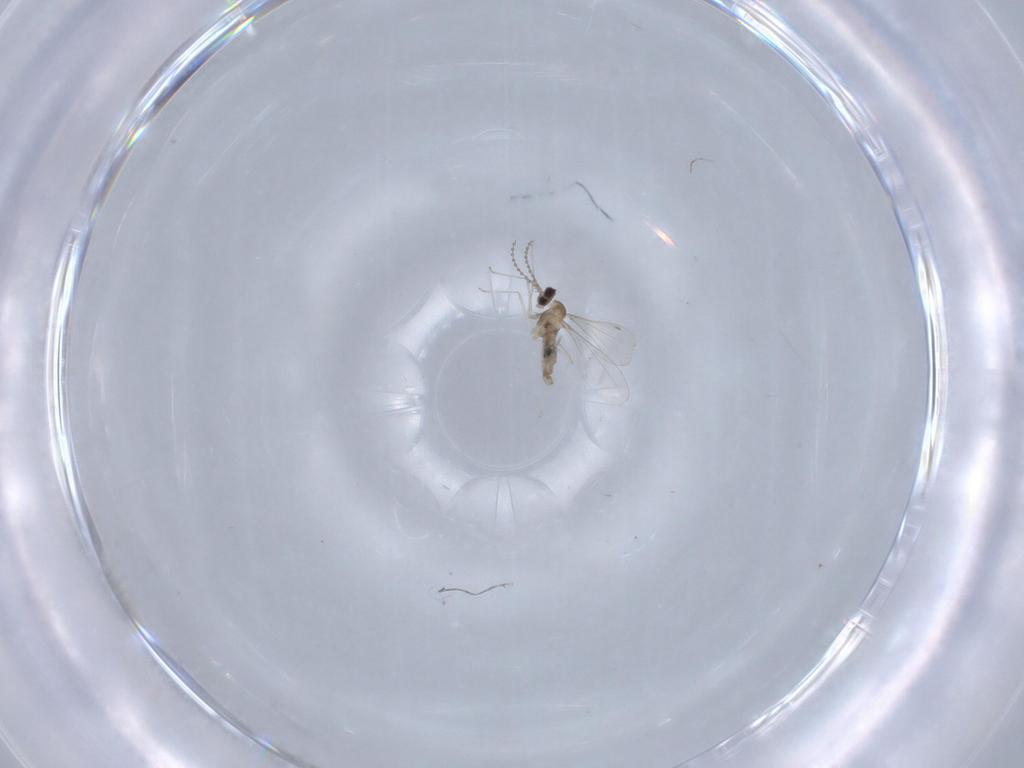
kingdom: Animalia
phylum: Arthropoda
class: Insecta
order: Diptera
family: Cecidomyiidae
